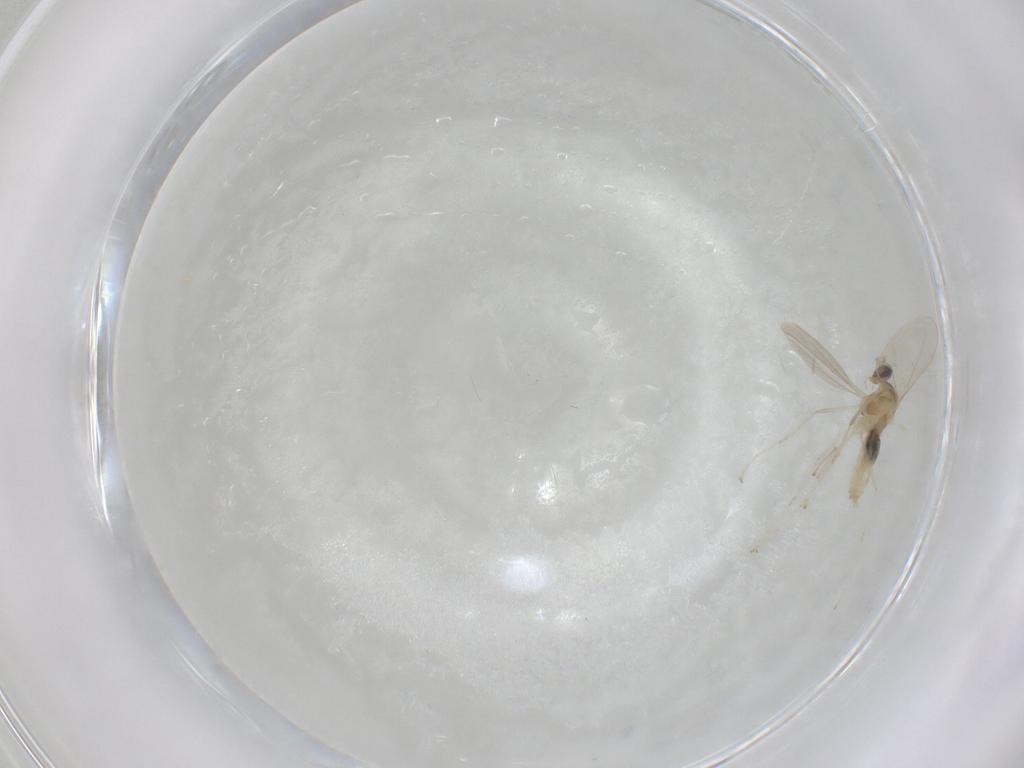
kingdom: Animalia
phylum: Arthropoda
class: Insecta
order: Diptera
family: Cecidomyiidae
